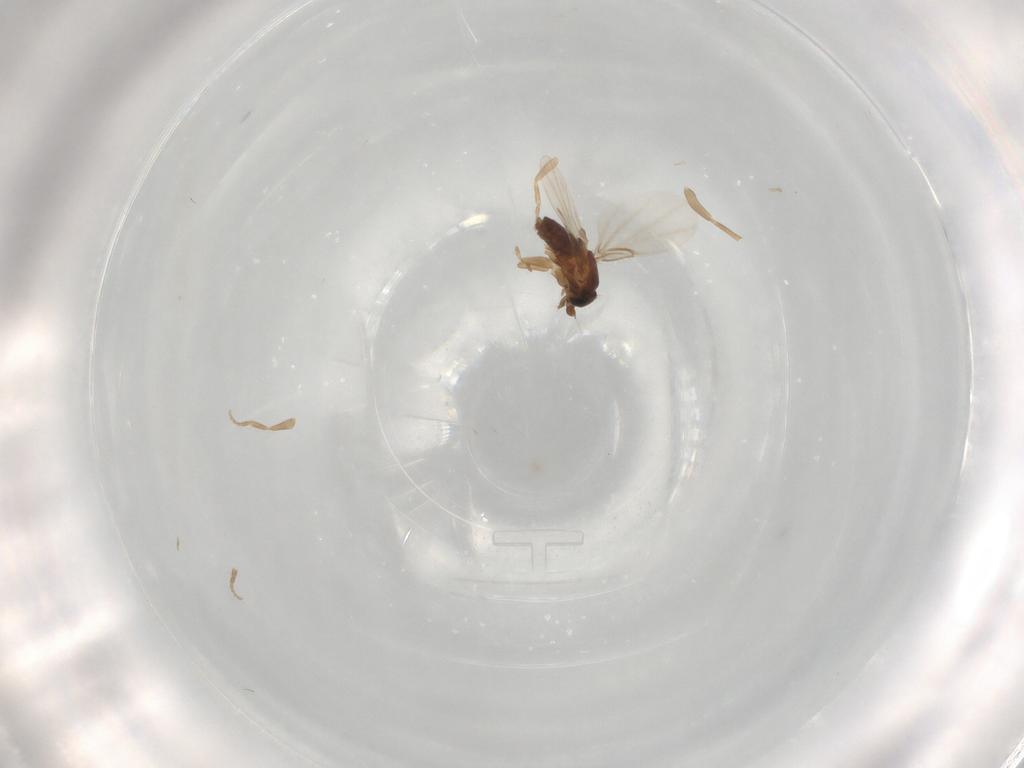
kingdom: Animalia
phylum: Arthropoda
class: Insecta
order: Diptera
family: Phoridae
